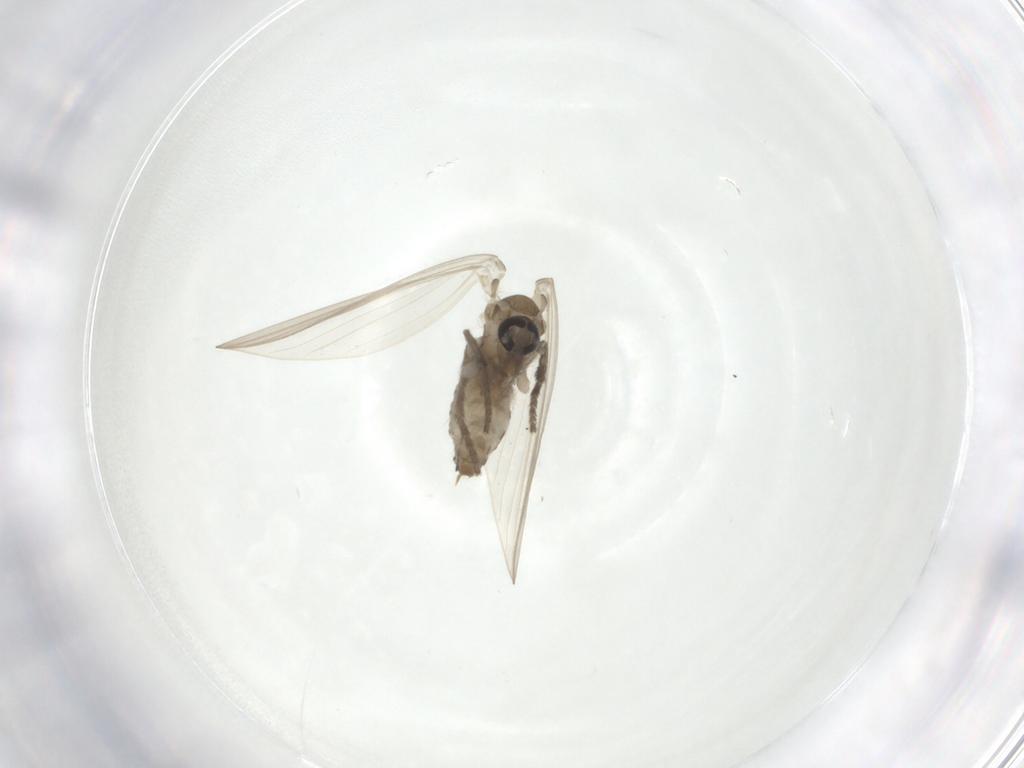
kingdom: Animalia
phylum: Arthropoda
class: Insecta
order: Diptera
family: Psychodidae
